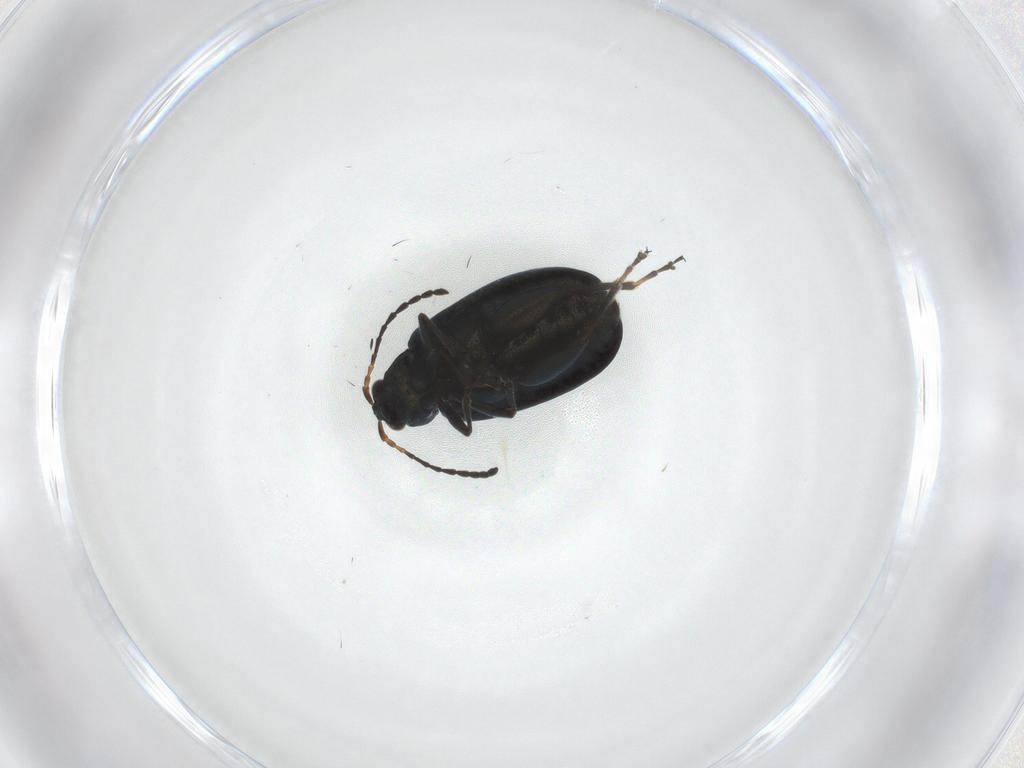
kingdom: Animalia
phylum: Arthropoda
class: Insecta
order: Coleoptera
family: Chrysomelidae
